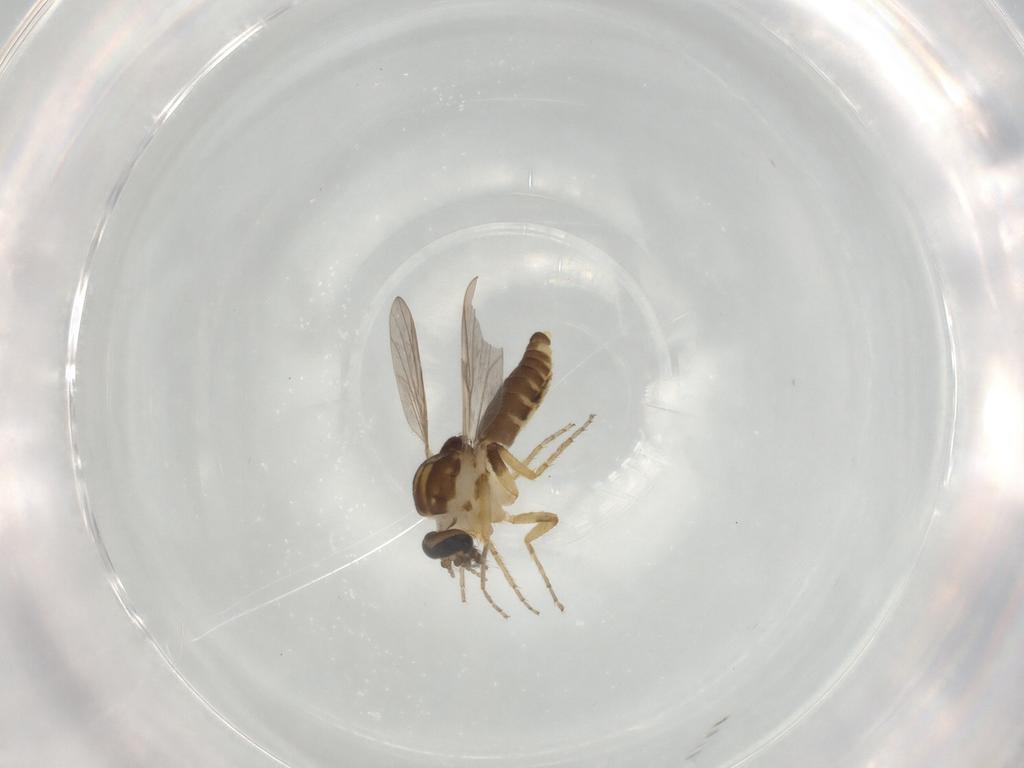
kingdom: Animalia
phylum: Arthropoda
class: Insecta
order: Diptera
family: Ceratopogonidae
